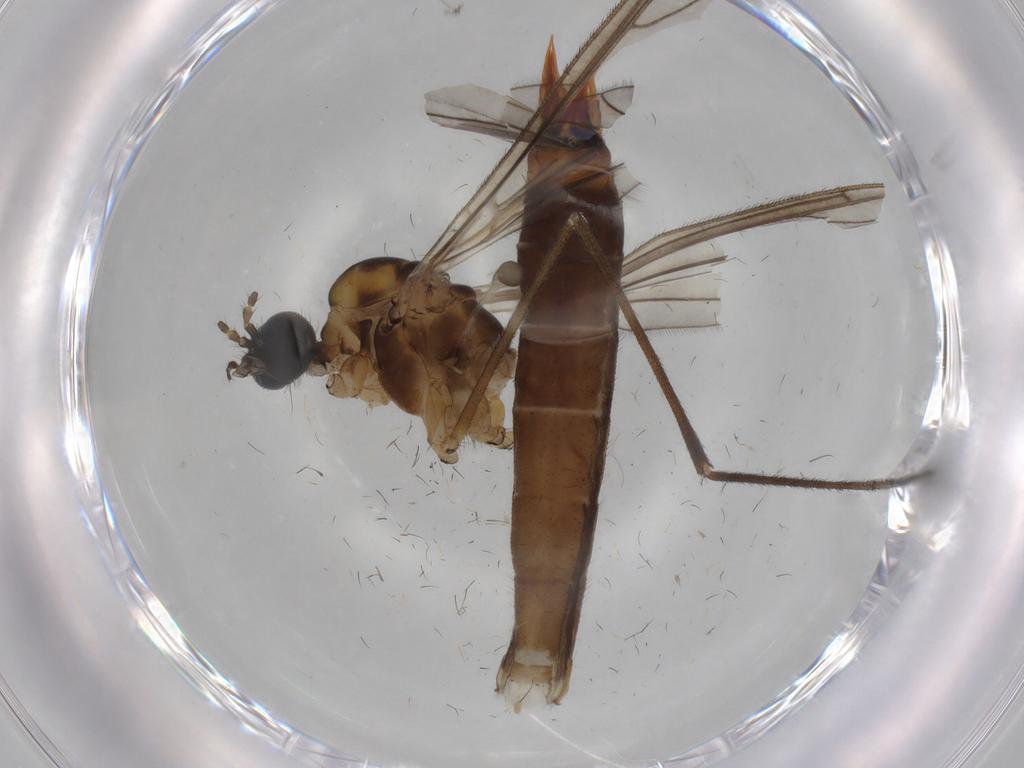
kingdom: Animalia
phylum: Arthropoda
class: Insecta
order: Diptera
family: Limoniidae
